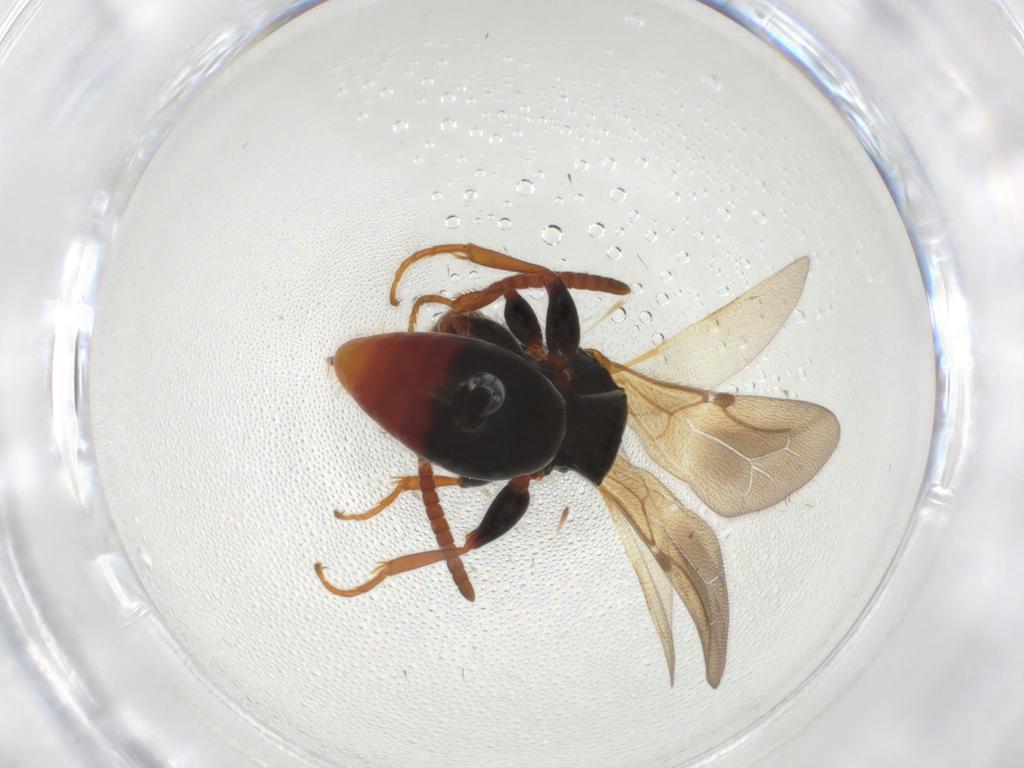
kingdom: Animalia
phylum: Arthropoda
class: Insecta
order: Hymenoptera
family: Bethylidae
